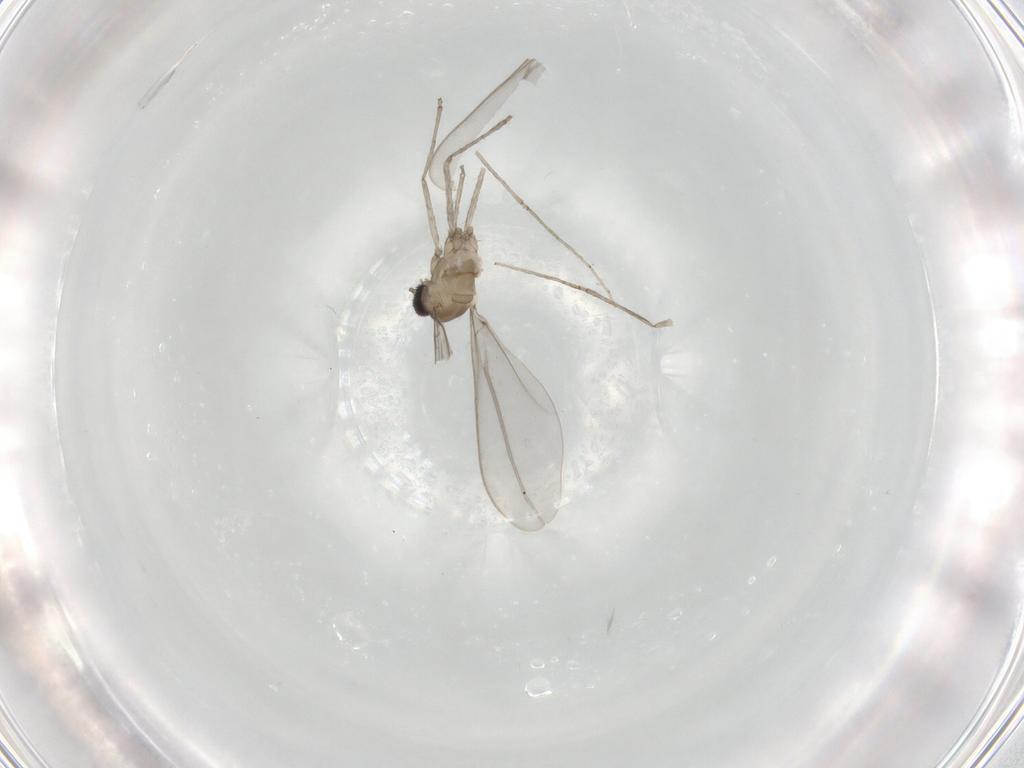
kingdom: Animalia
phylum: Arthropoda
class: Insecta
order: Diptera
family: Cecidomyiidae
